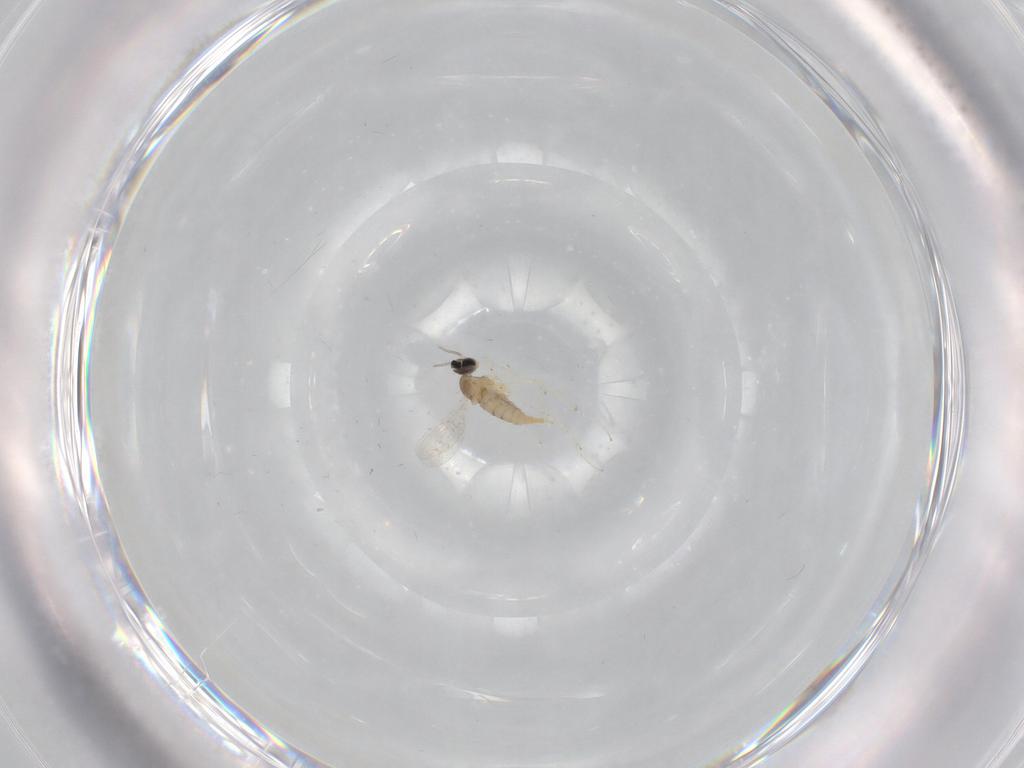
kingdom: Animalia
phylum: Arthropoda
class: Insecta
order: Diptera
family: Cecidomyiidae
